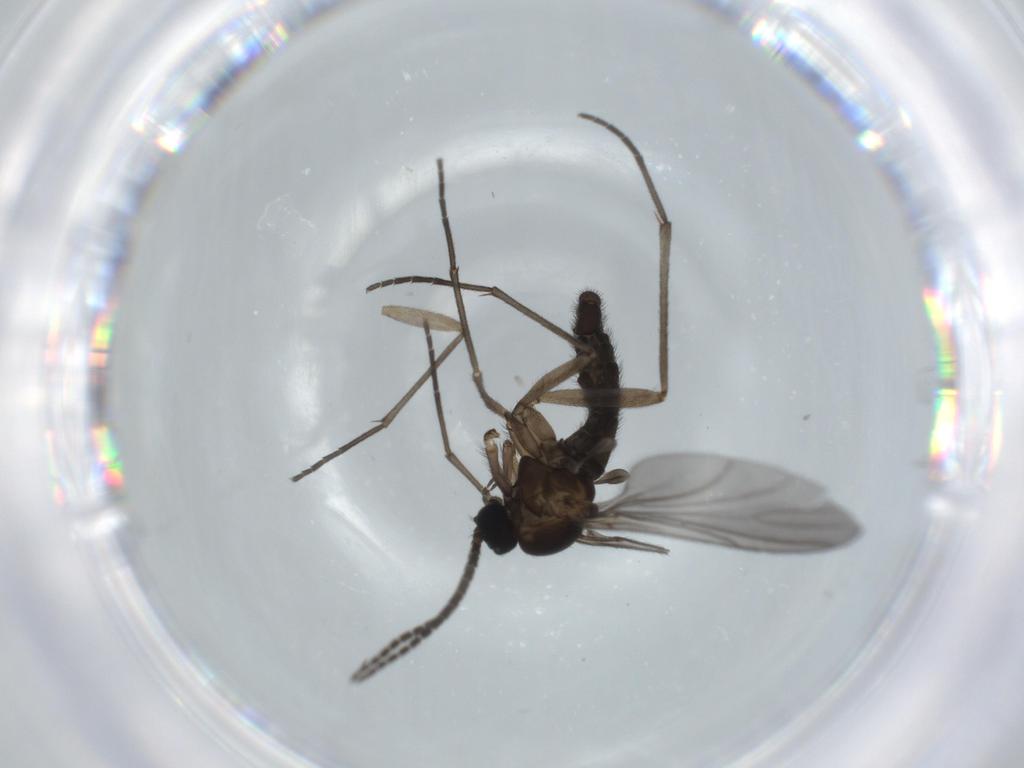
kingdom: Animalia
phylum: Arthropoda
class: Insecta
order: Diptera
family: Sciaridae
